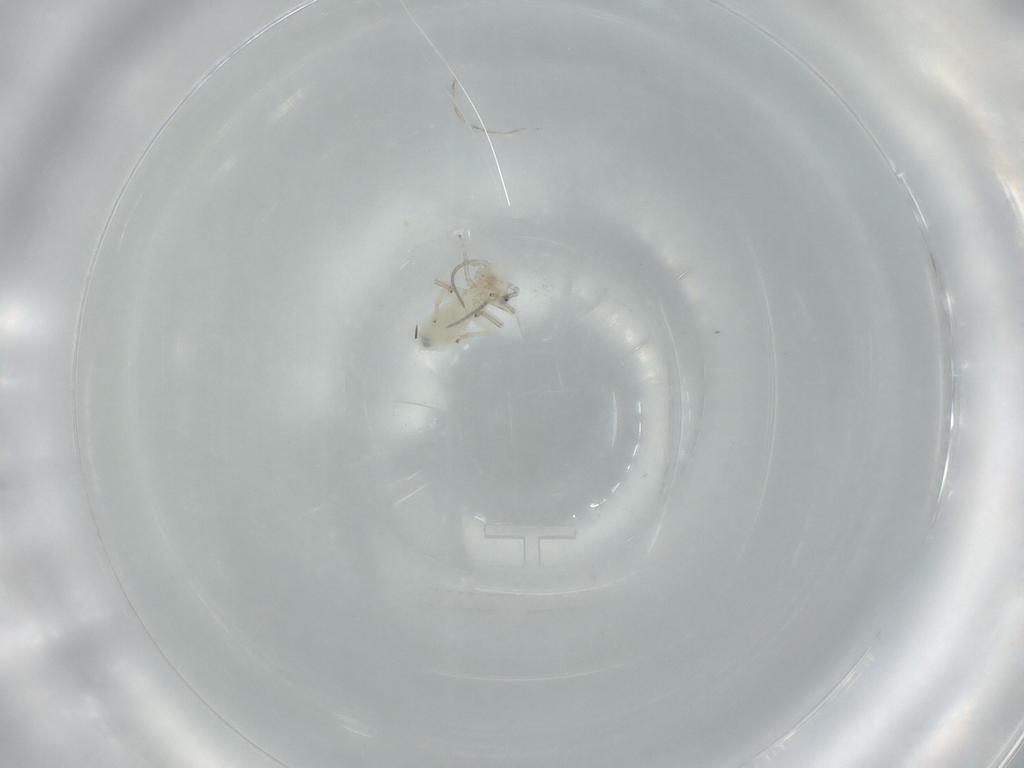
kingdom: Animalia
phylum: Arthropoda
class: Insecta
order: Psocodea
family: Caeciliusidae
